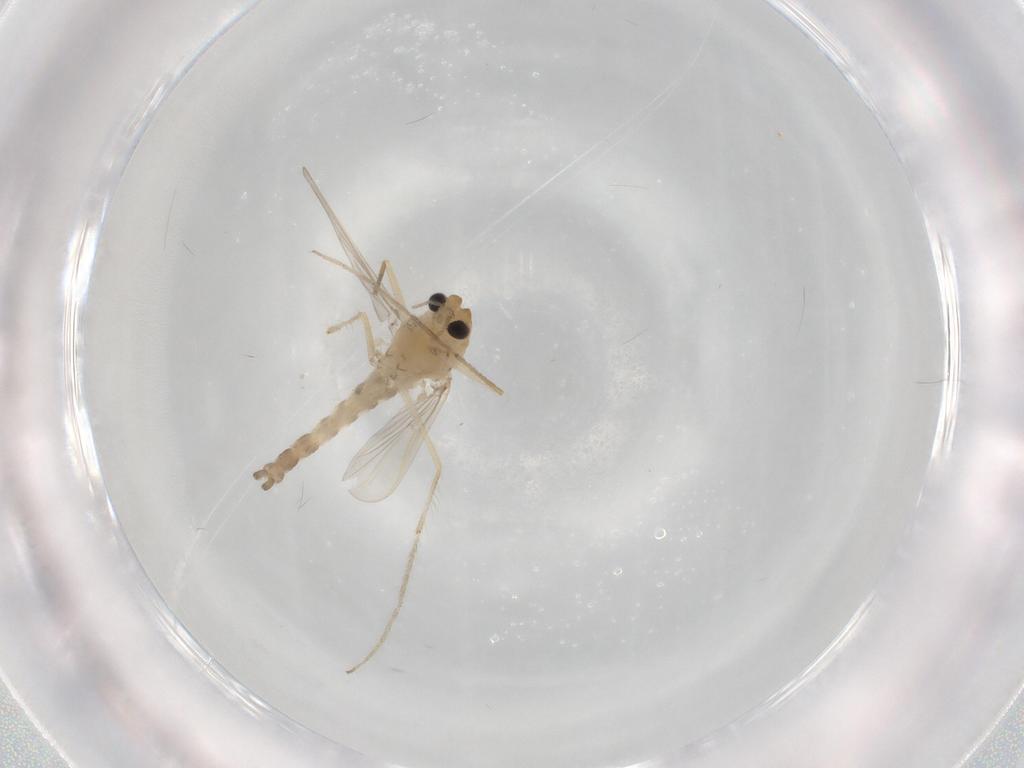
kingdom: Animalia
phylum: Arthropoda
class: Insecta
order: Diptera
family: Chironomidae
